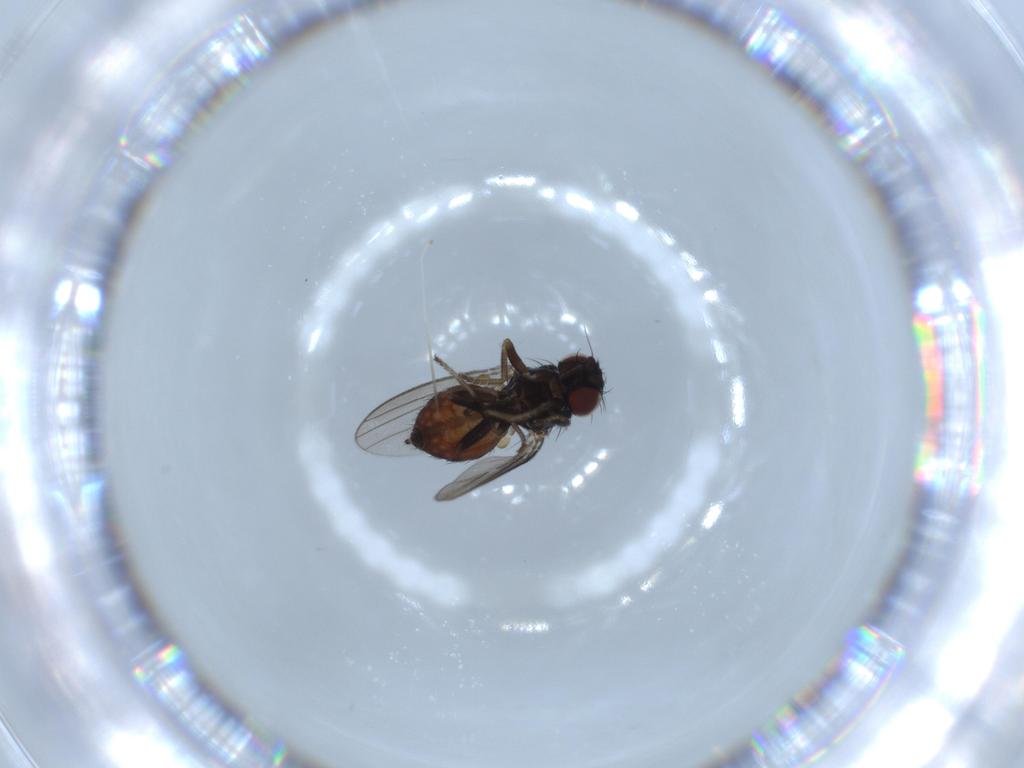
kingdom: Animalia
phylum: Arthropoda
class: Insecta
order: Diptera
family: Milichiidae
